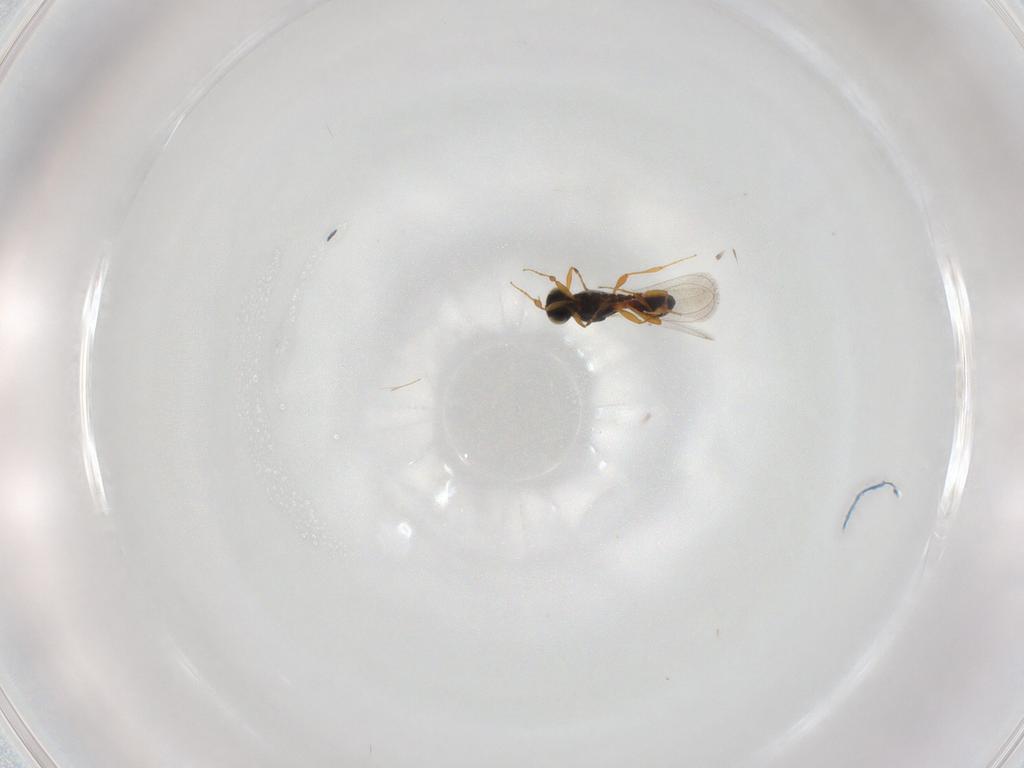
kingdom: Animalia
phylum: Arthropoda
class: Insecta
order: Hymenoptera
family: Platygastridae
